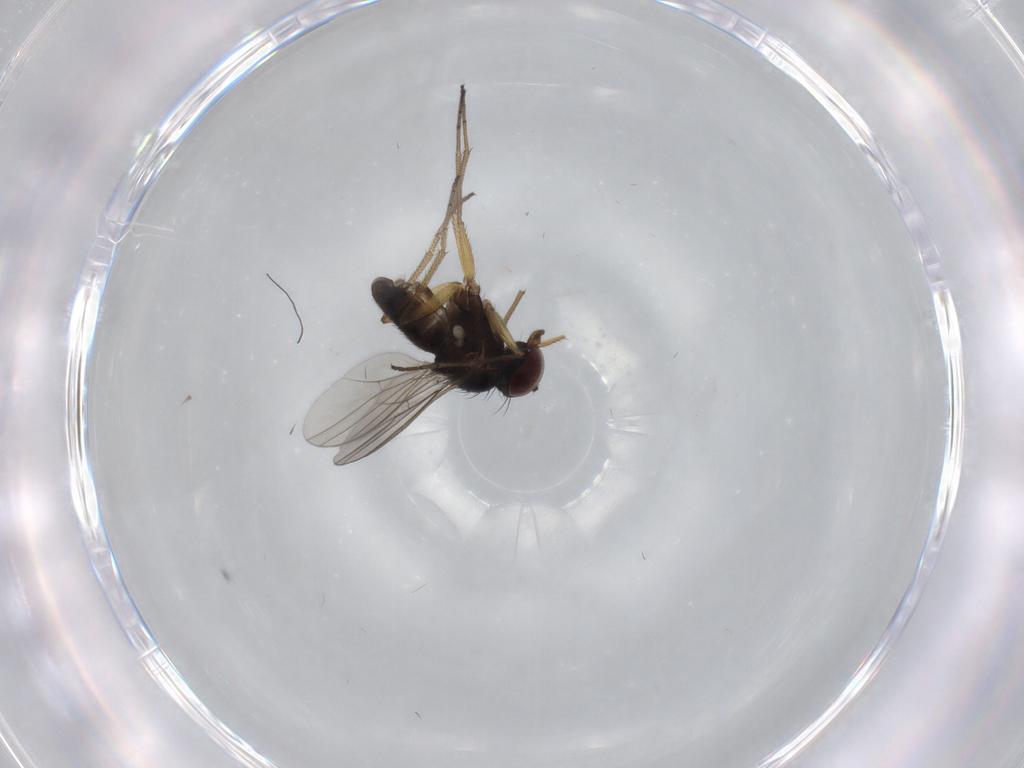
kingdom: Animalia
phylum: Arthropoda
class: Insecta
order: Diptera
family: Dolichopodidae
